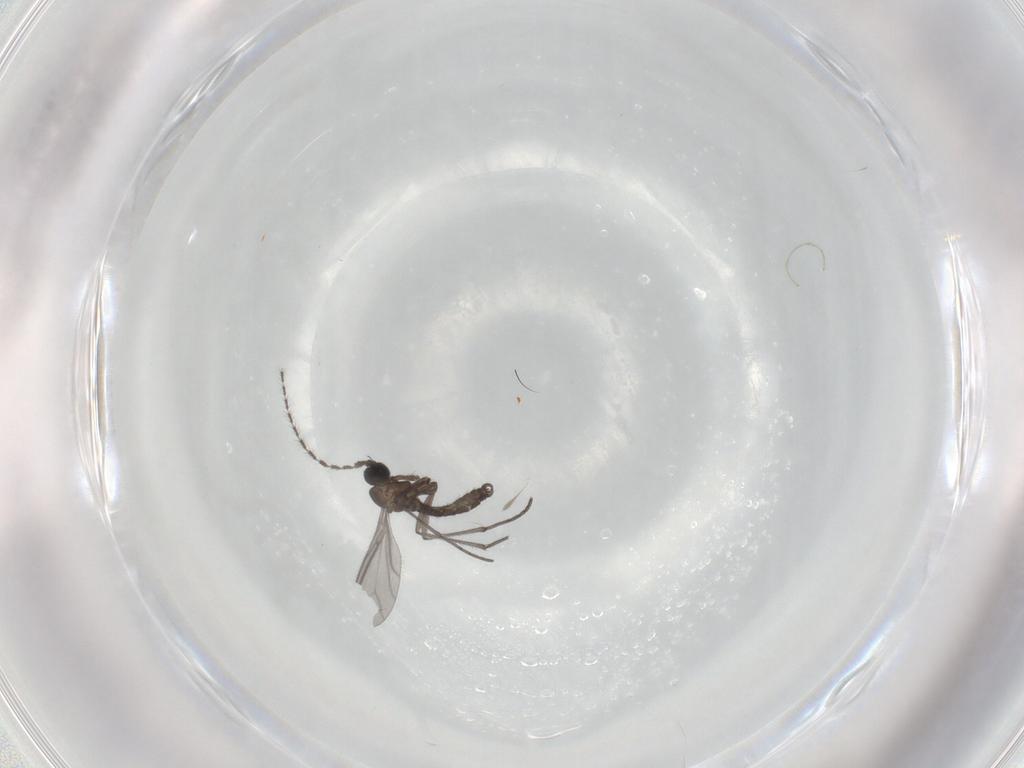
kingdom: Animalia
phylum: Arthropoda
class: Insecta
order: Diptera
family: Sciaridae
